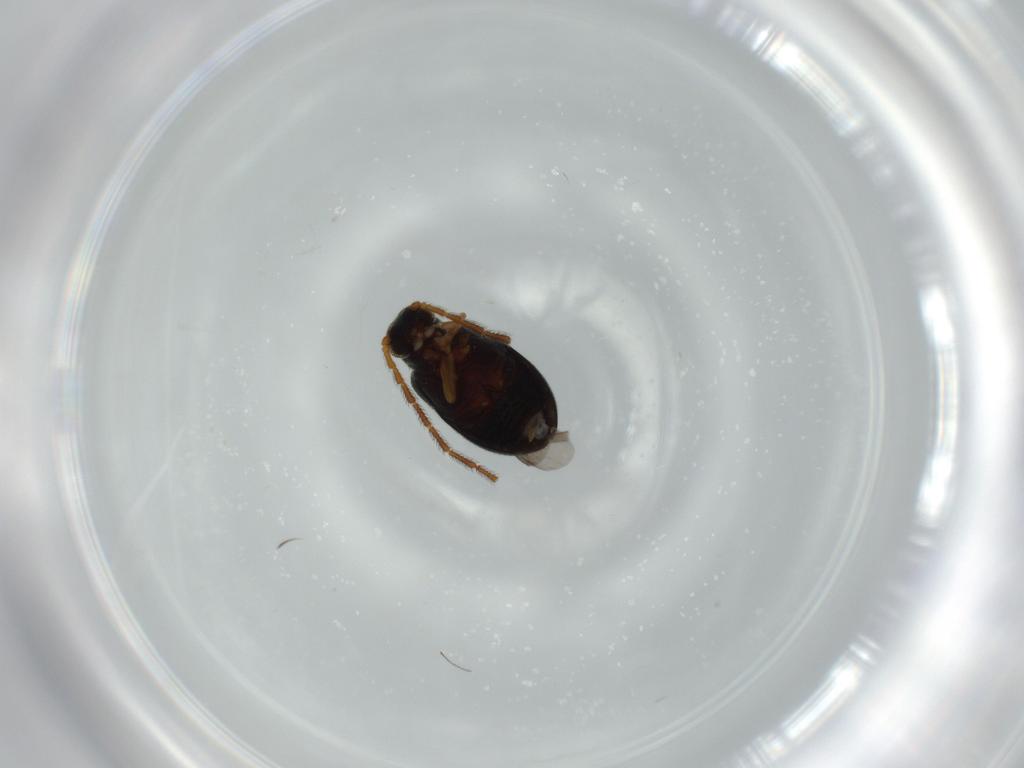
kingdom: Animalia
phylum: Arthropoda
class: Insecta
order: Coleoptera
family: Aderidae
